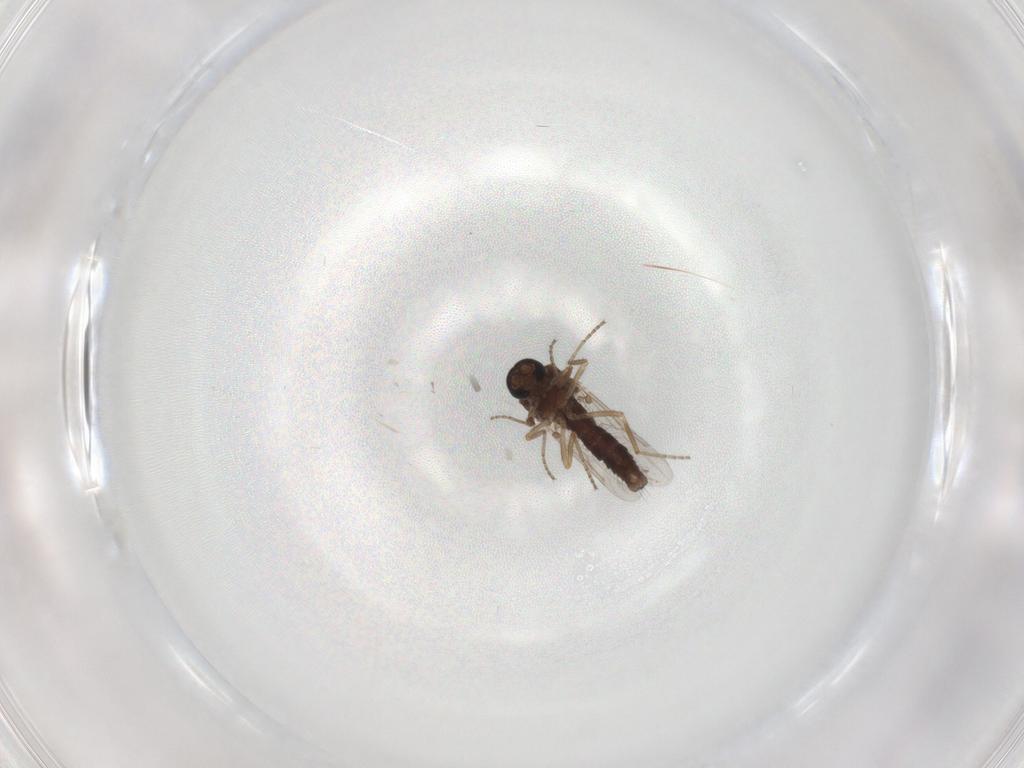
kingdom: Animalia
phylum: Arthropoda
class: Insecta
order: Diptera
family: Ceratopogonidae
